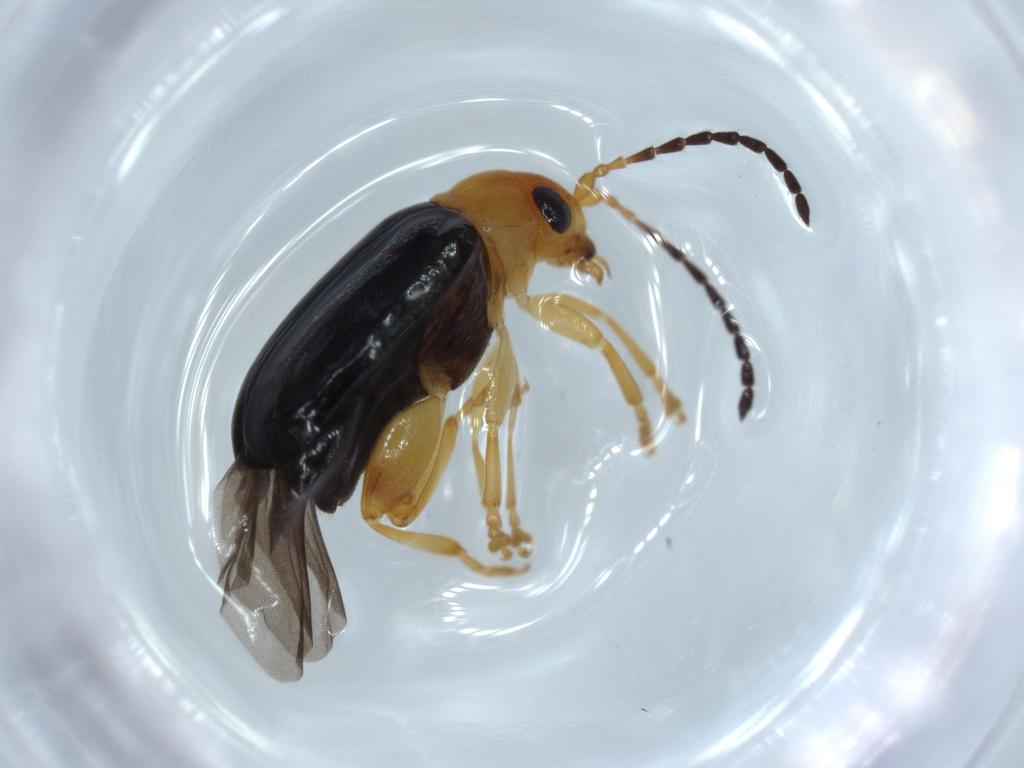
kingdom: Animalia
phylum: Arthropoda
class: Insecta
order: Coleoptera
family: Chrysomelidae
